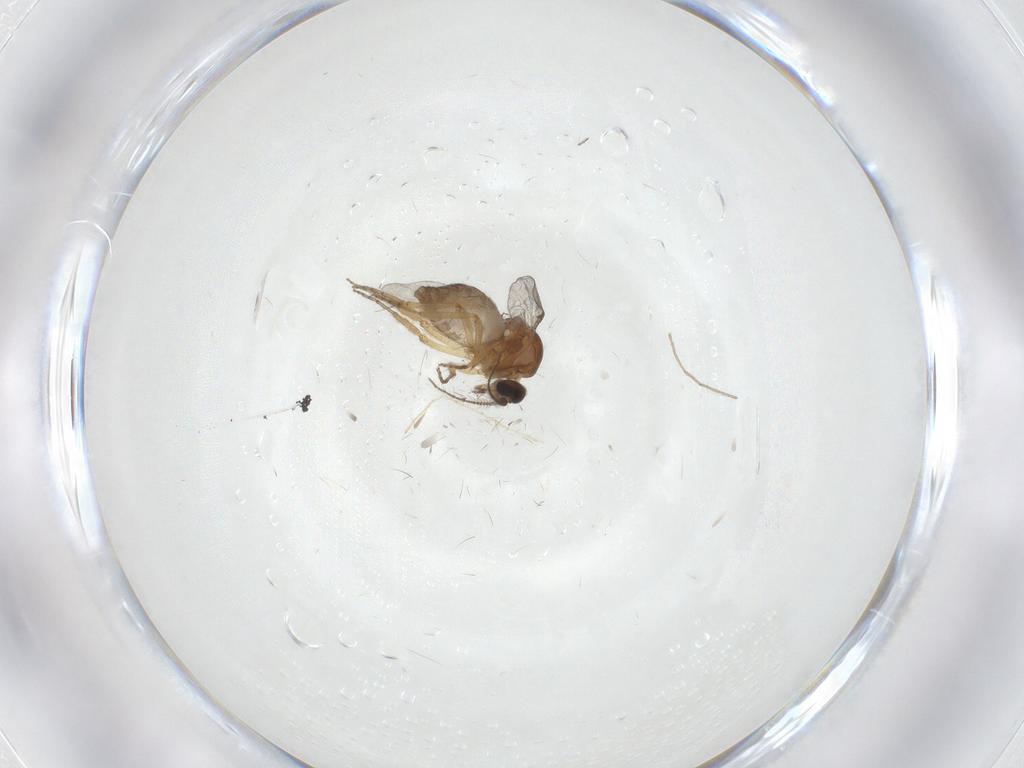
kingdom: Animalia
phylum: Arthropoda
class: Insecta
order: Diptera
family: Ceratopogonidae
